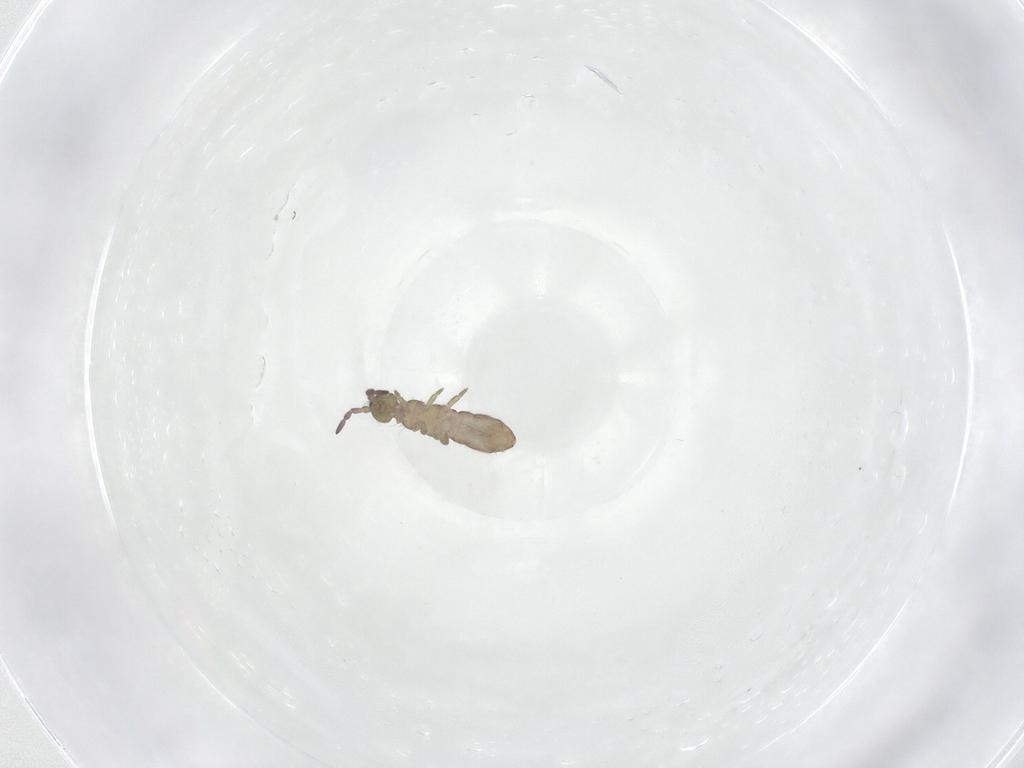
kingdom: Animalia
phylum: Arthropoda
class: Collembola
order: Entomobryomorpha
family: Isotomidae
